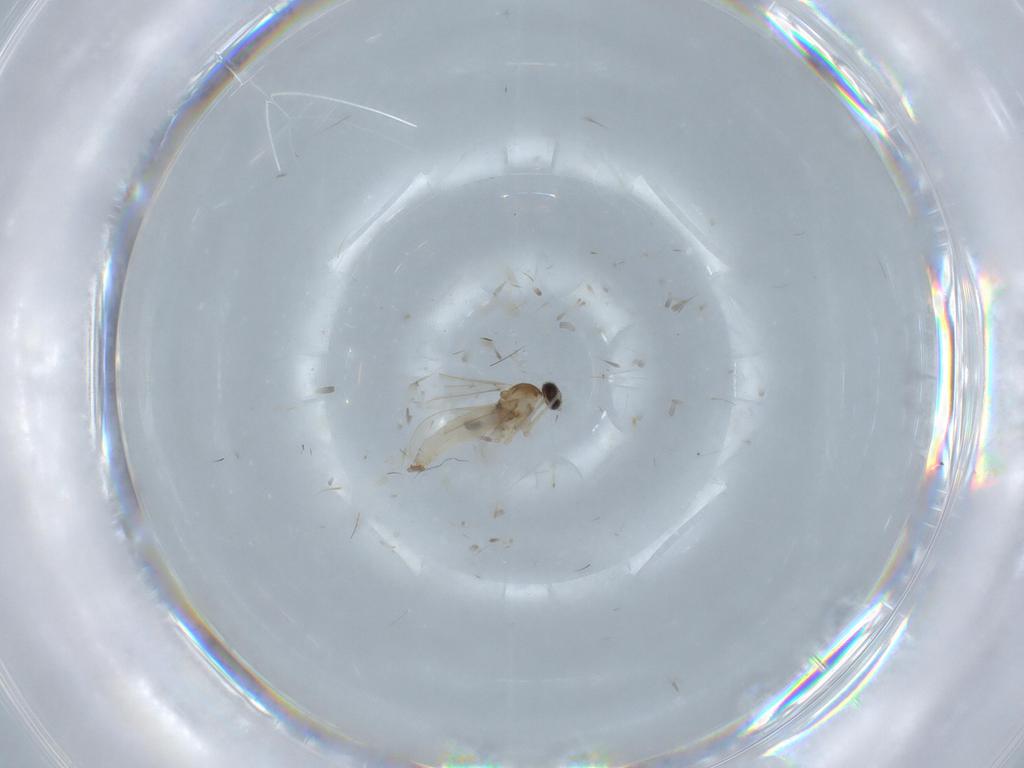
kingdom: Animalia
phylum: Arthropoda
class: Insecta
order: Diptera
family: Cecidomyiidae
